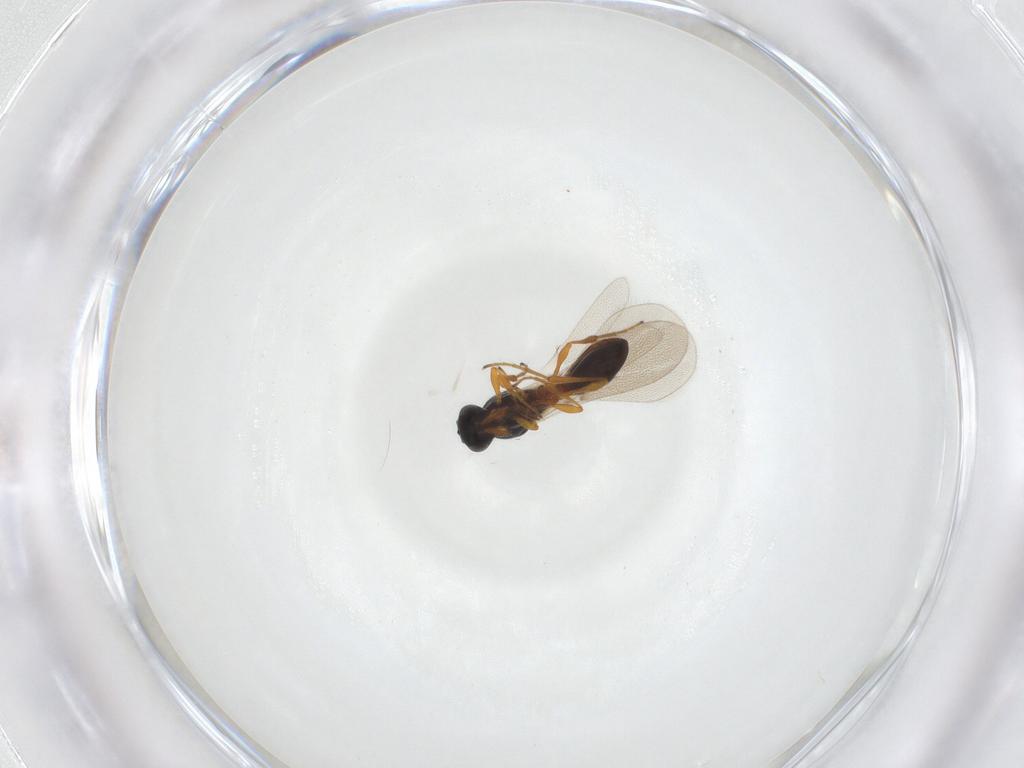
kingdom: Animalia
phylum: Arthropoda
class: Insecta
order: Hymenoptera
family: Platygastridae
